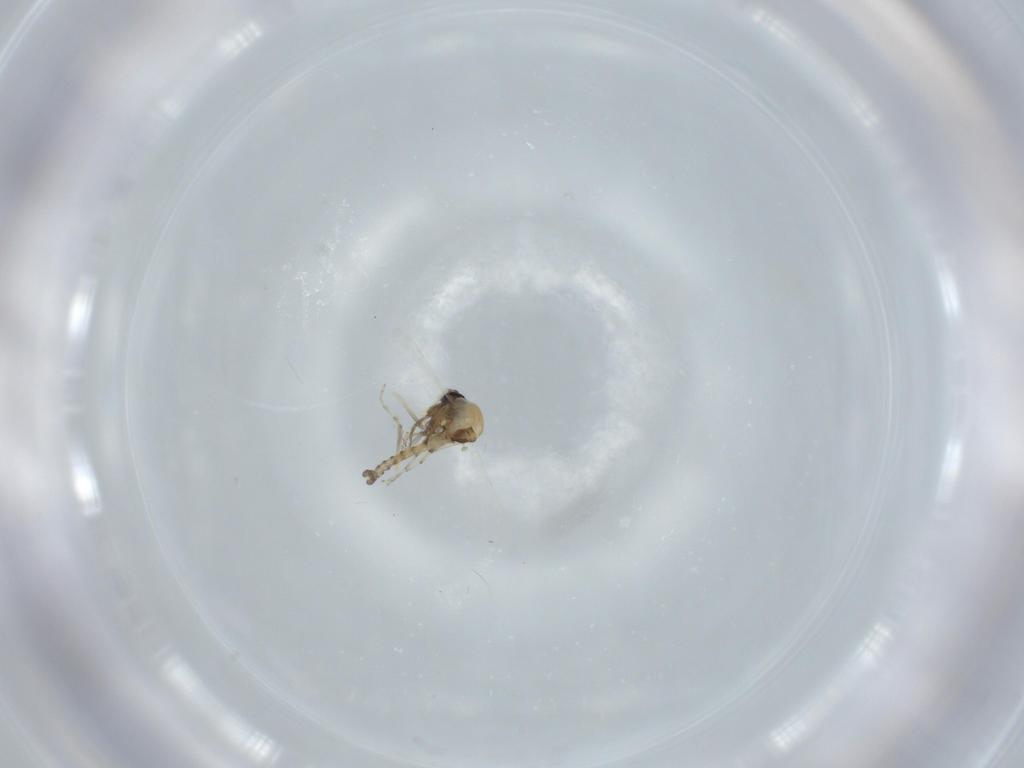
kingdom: Animalia
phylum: Arthropoda
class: Insecta
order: Diptera
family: Ceratopogonidae
